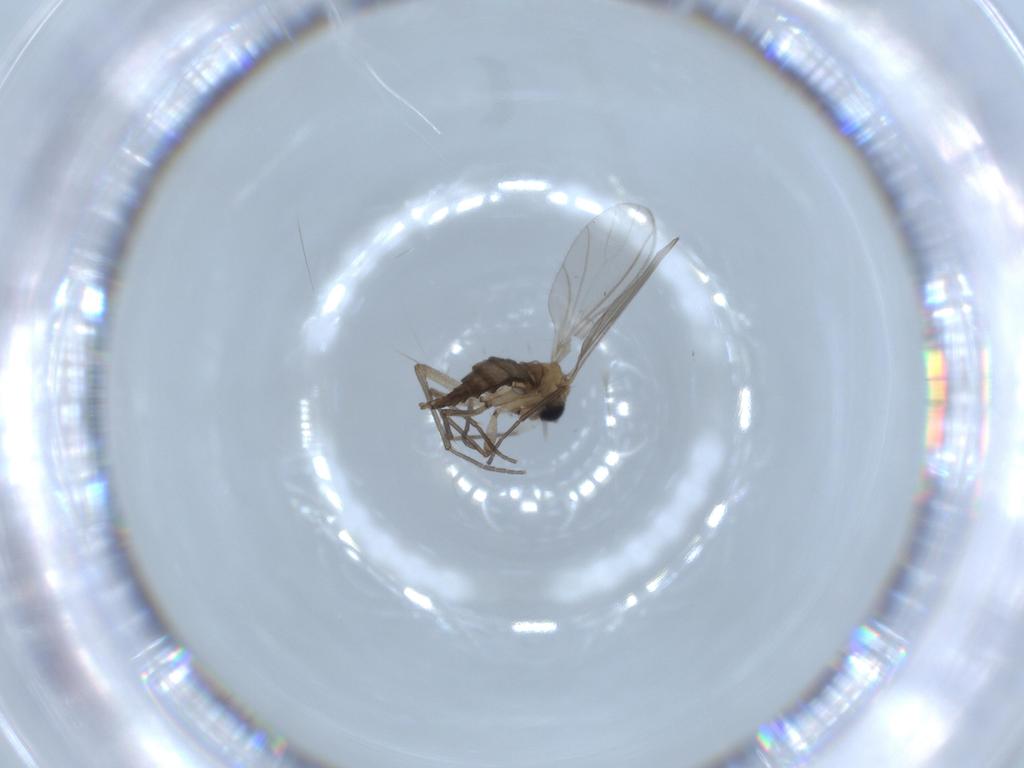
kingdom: Animalia
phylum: Arthropoda
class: Insecta
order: Diptera
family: Sciaridae
